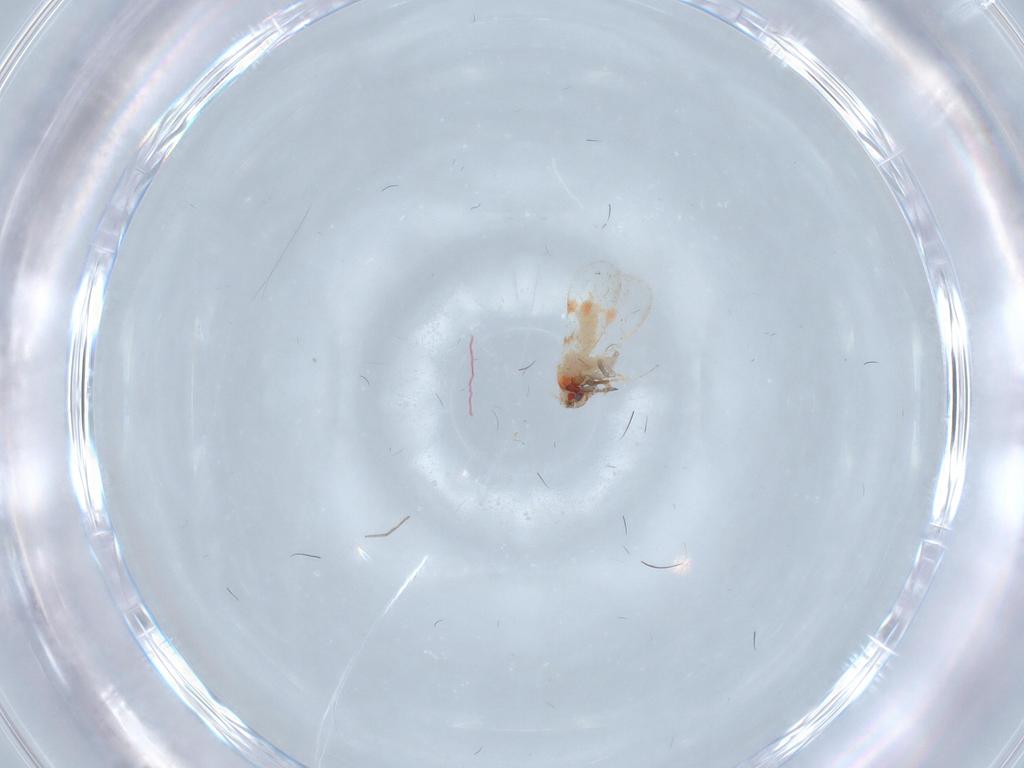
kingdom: Animalia
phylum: Arthropoda
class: Insecta
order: Hemiptera
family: Aleyrodidae
